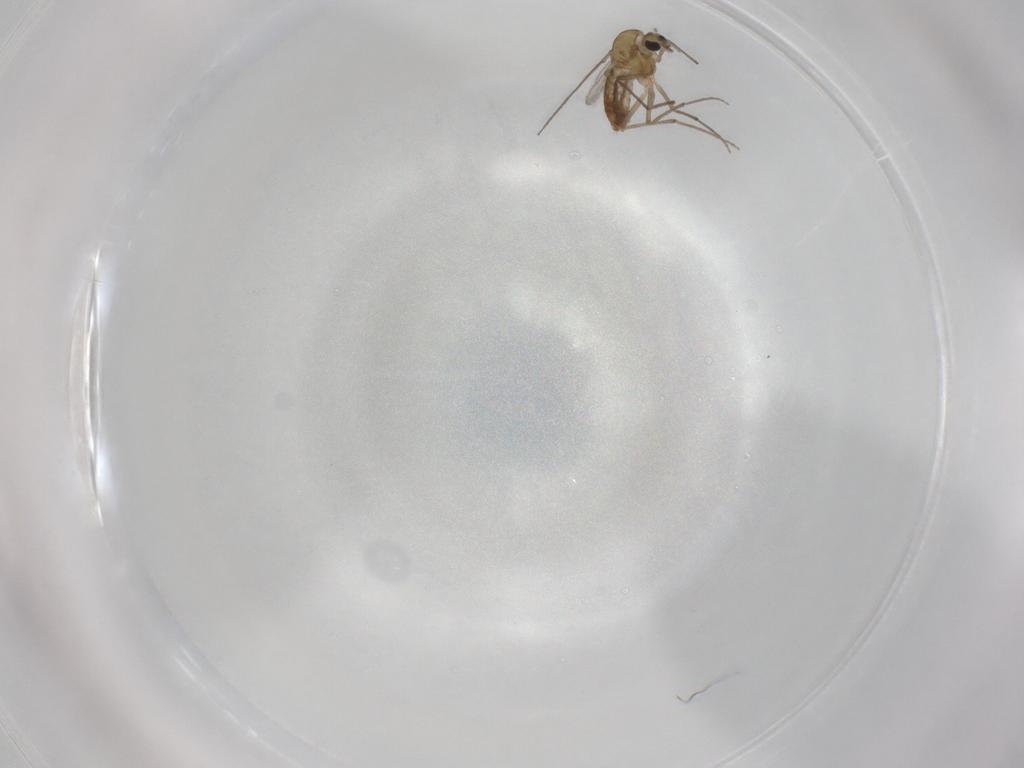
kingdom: Animalia
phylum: Arthropoda
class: Insecta
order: Diptera
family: Chironomidae
